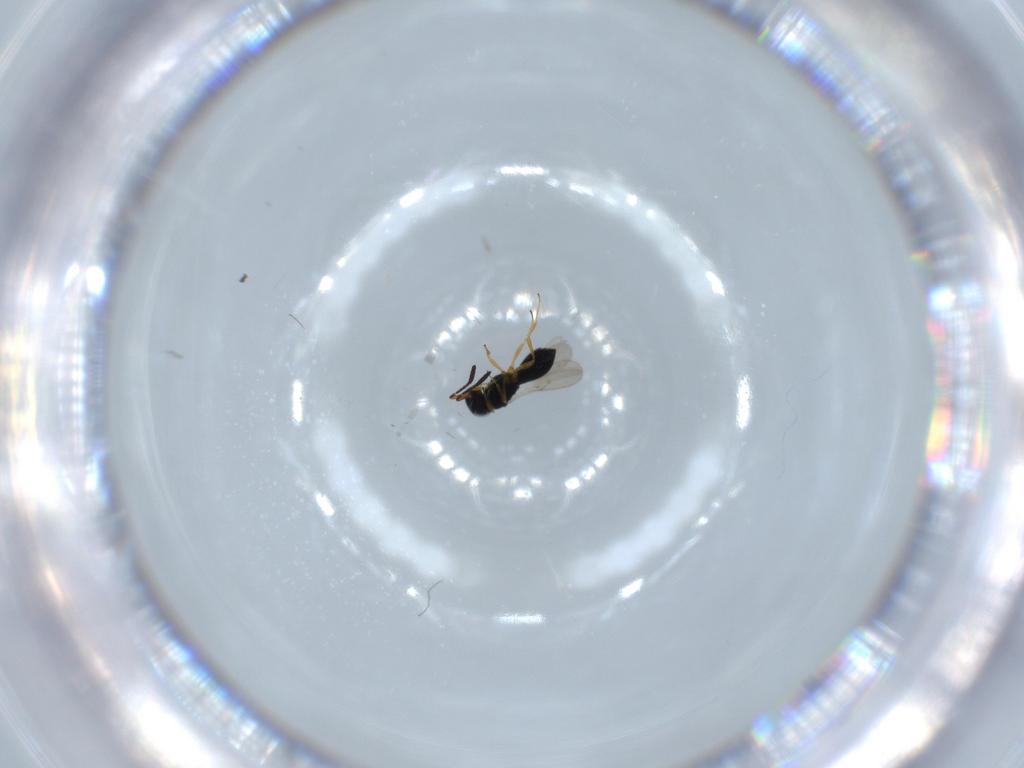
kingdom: Animalia
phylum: Arthropoda
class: Insecta
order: Hymenoptera
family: Scelionidae
